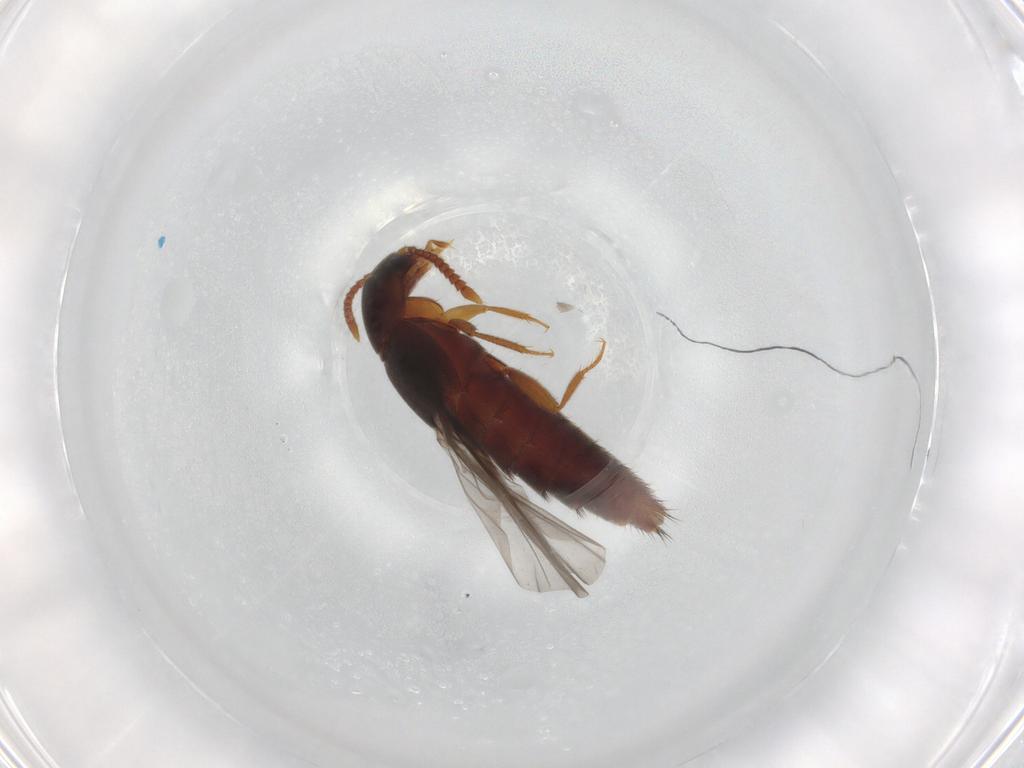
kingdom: Animalia
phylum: Arthropoda
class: Insecta
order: Coleoptera
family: Staphylinidae
